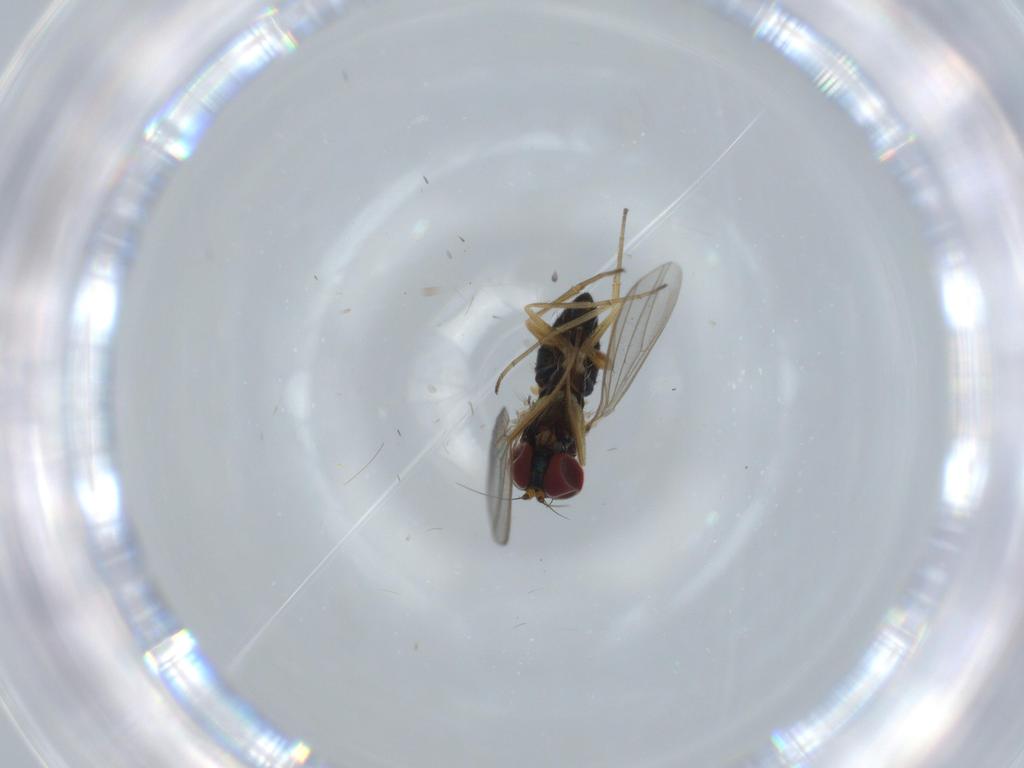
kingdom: Animalia
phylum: Arthropoda
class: Insecta
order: Diptera
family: Dolichopodidae
